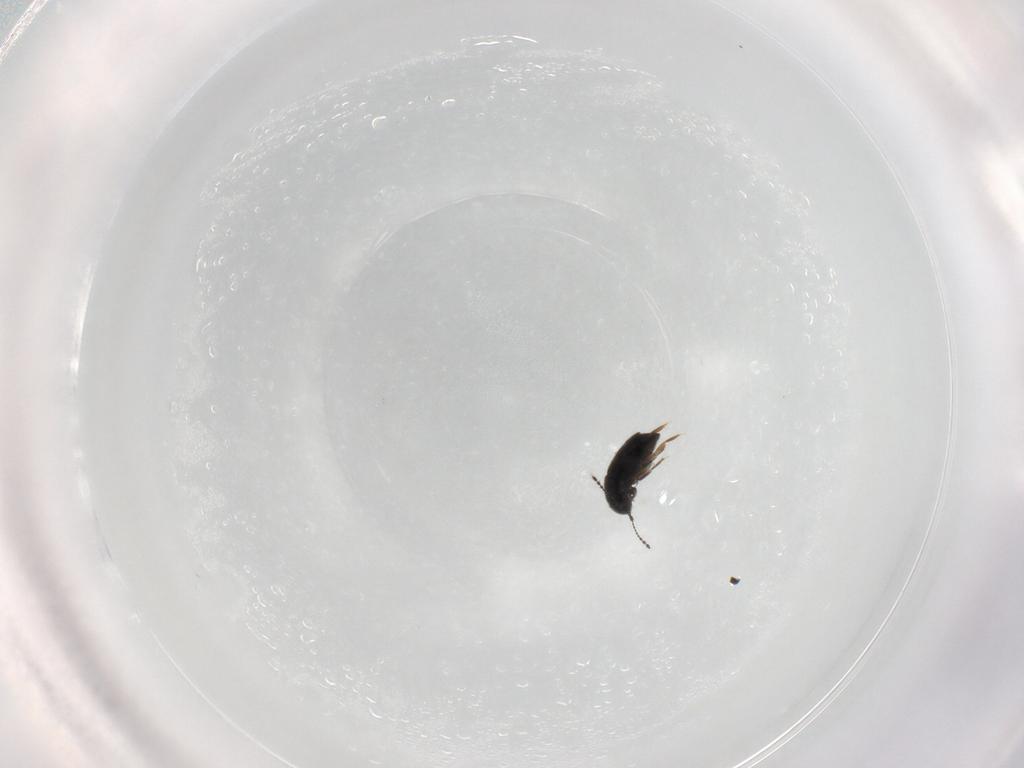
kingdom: Animalia
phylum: Arthropoda
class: Insecta
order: Coleoptera
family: Ptiliidae
